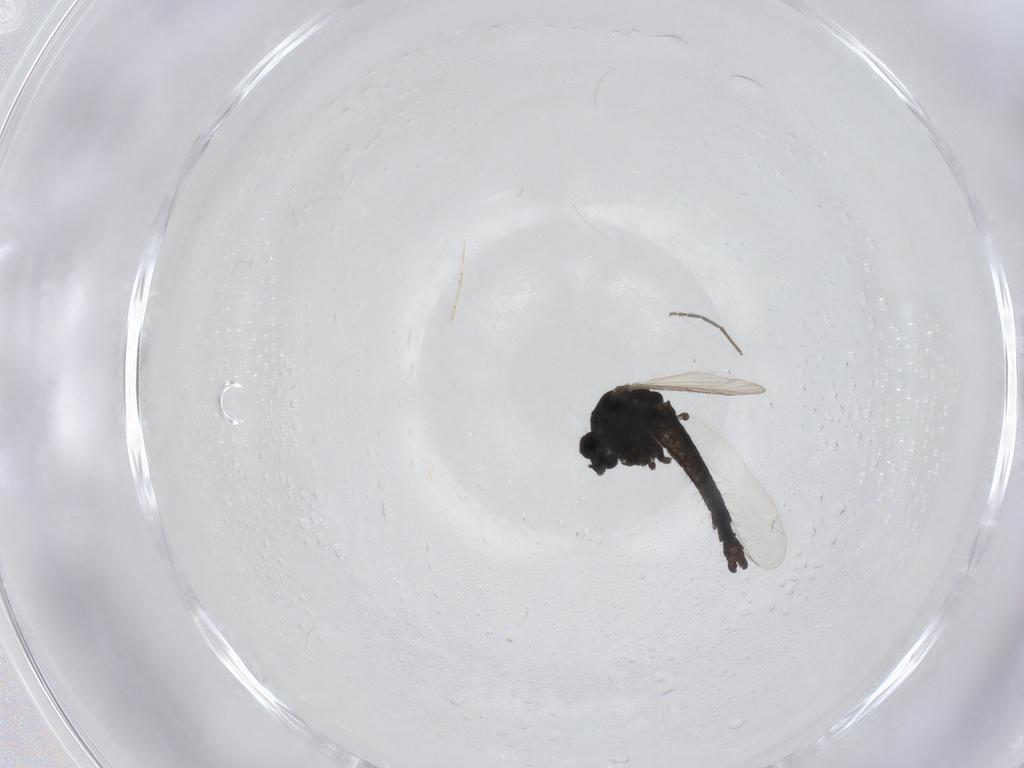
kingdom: Animalia
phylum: Arthropoda
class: Insecta
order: Diptera
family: Chironomidae
